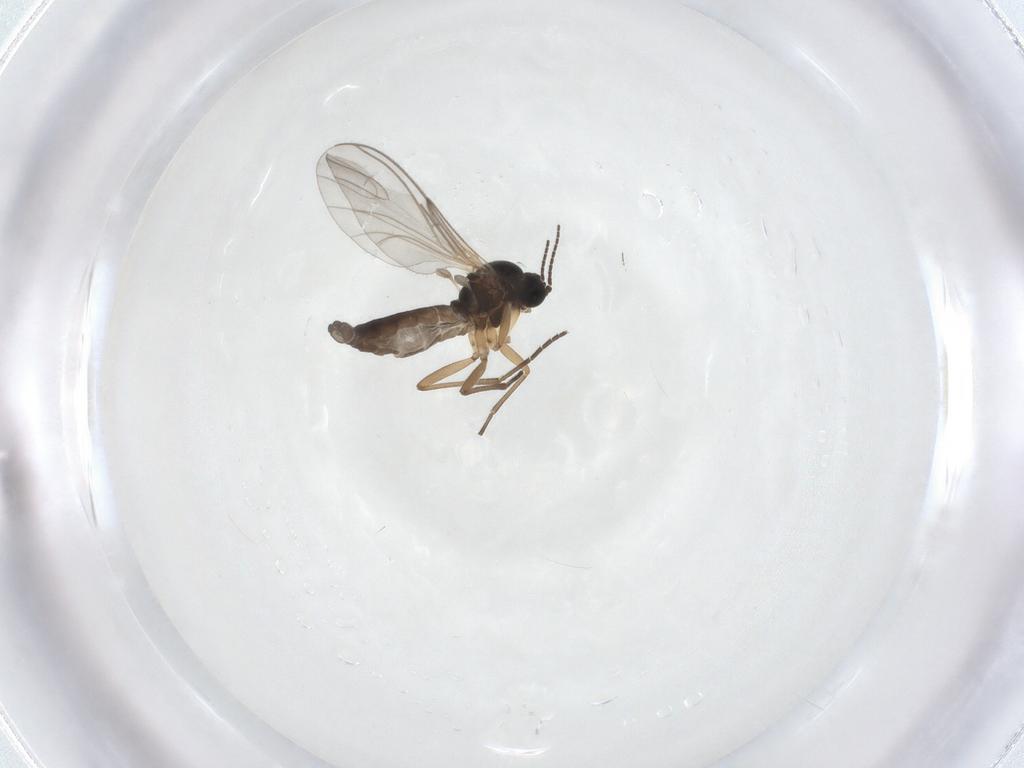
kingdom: Animalia
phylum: Arthropoda
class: Insecta
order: Diptera
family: Sciaridae
